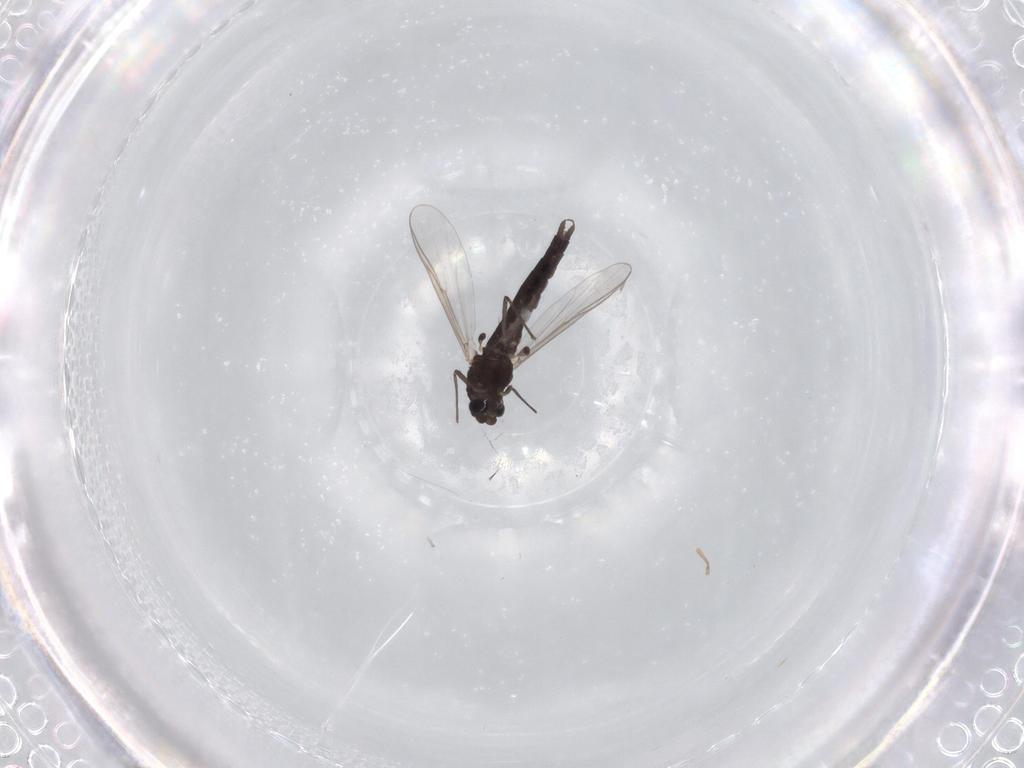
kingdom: Animalia
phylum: Arthropoda
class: Insecta
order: Diptera
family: Chironomidae
